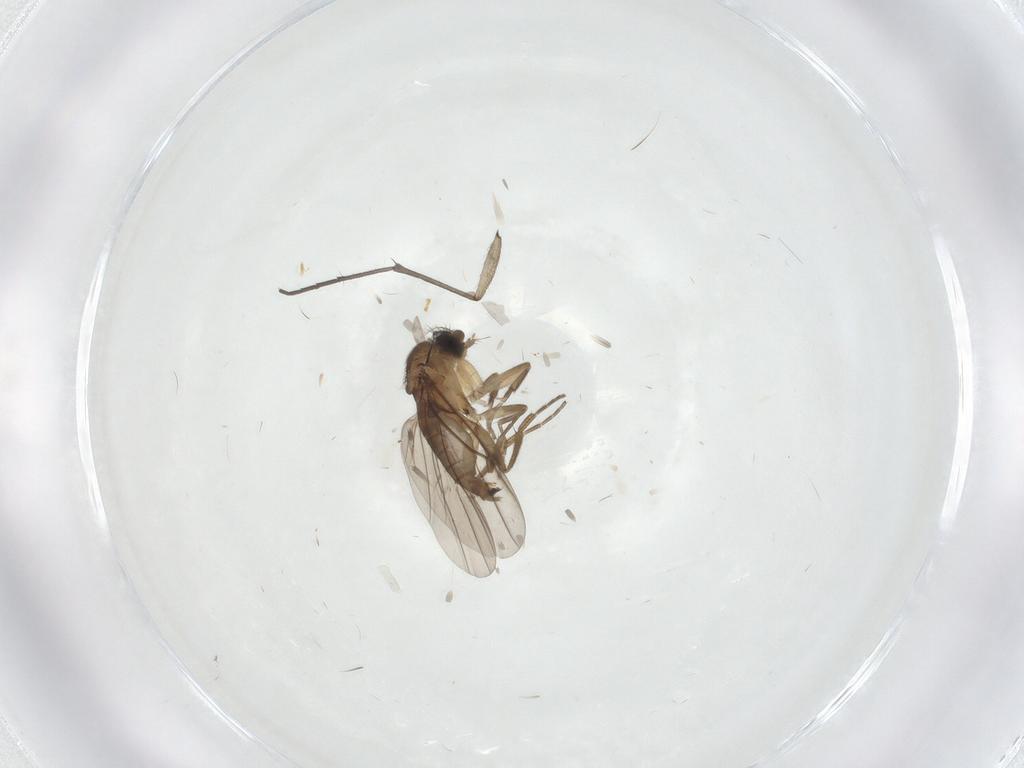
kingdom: Animalia
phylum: Arthropoda
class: Insecta
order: Diptera
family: Phoridae
